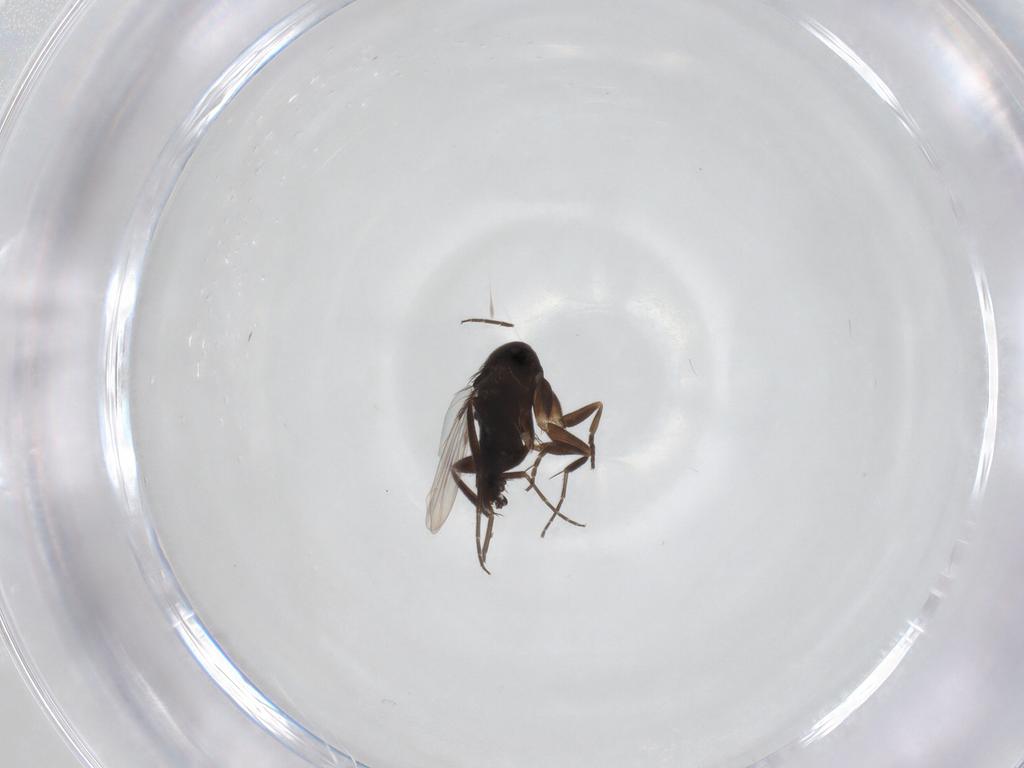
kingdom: Animalia
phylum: Arthropoda
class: Insecta
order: Diptera
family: Phoridae
